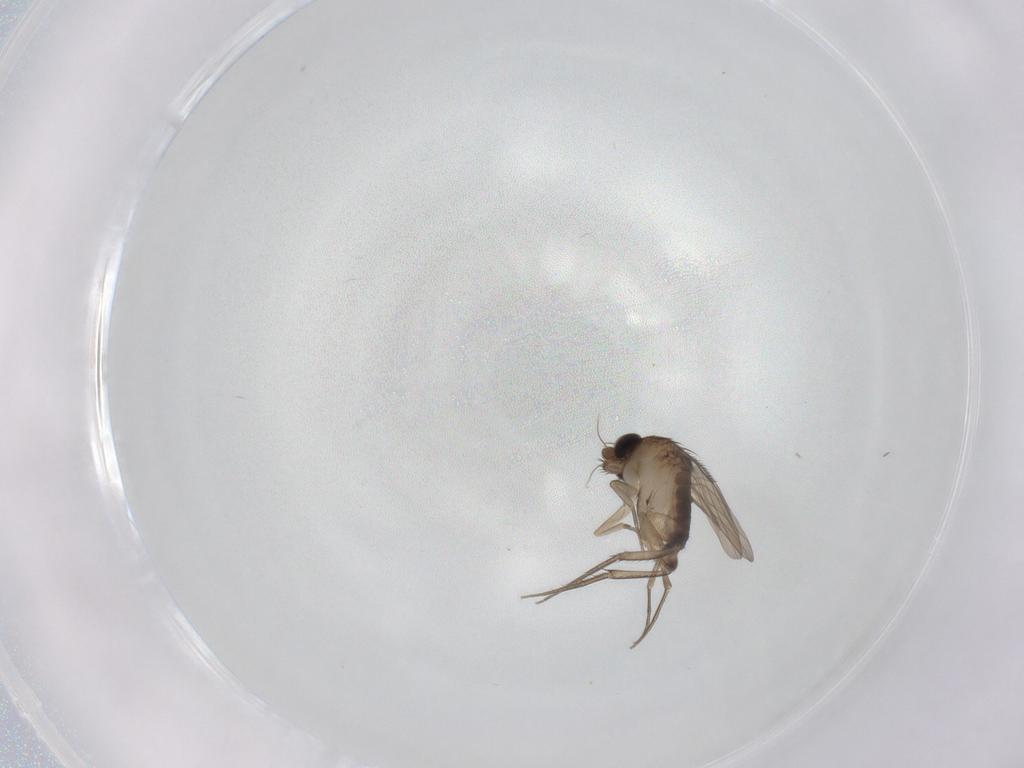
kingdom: Animalia
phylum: Arthropoda
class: Insecta
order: Diptera
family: Phoridae
